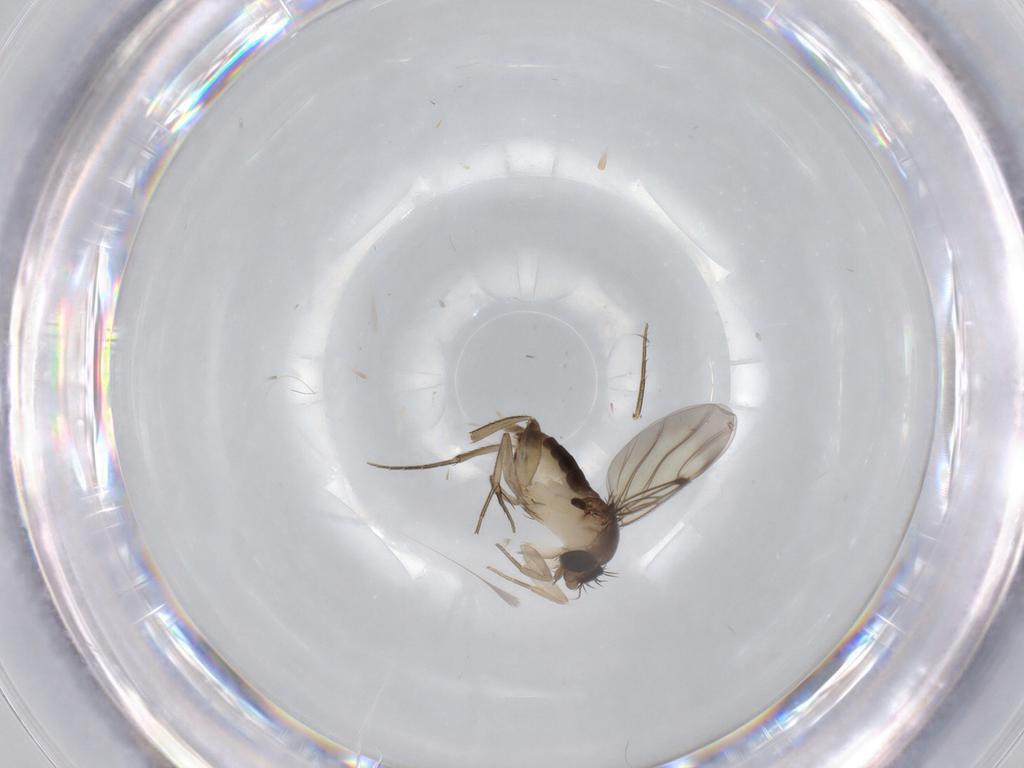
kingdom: Animalia
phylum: Arthropoda
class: Insecta
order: Diptera
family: Phoridae
